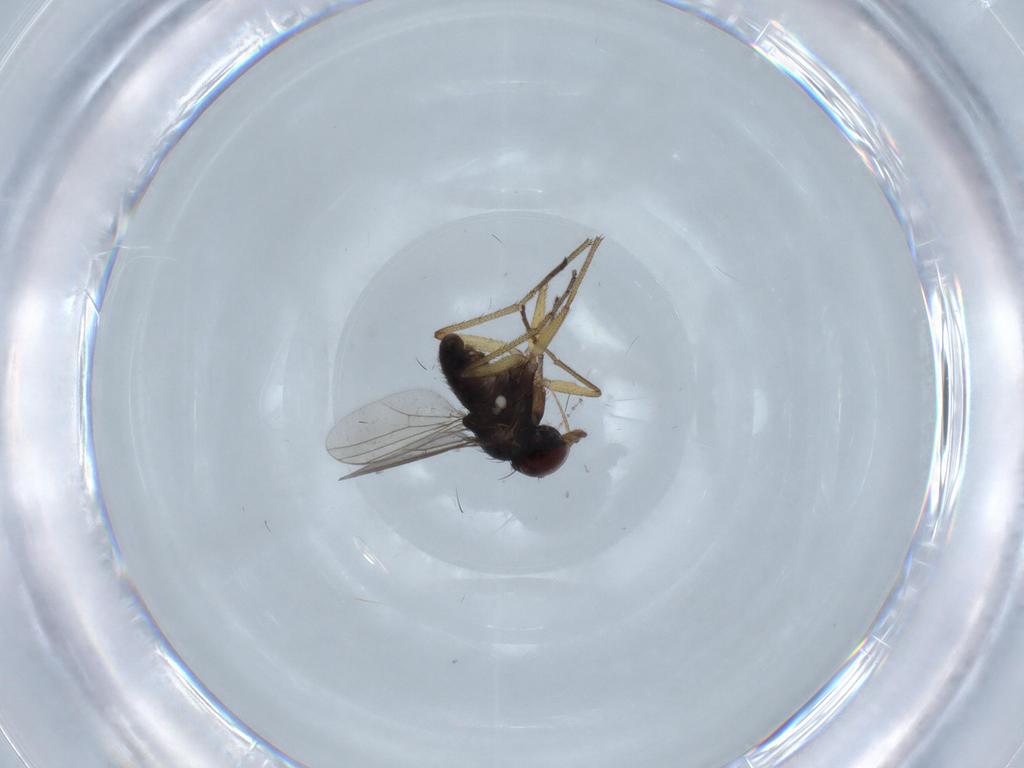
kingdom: Animalia
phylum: Arthropoda
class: Insecta
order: Diptera
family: Dolichopodidae
